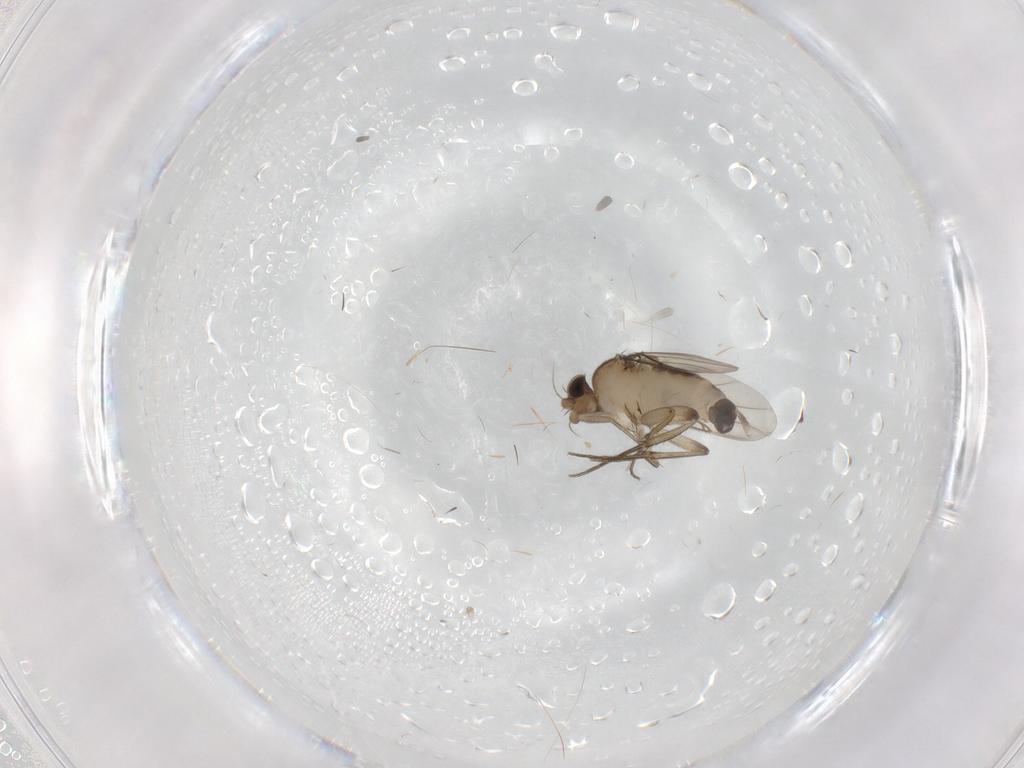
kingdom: Animalia
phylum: Arthropoda
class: Insecta
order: Diptera
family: Phoridae
